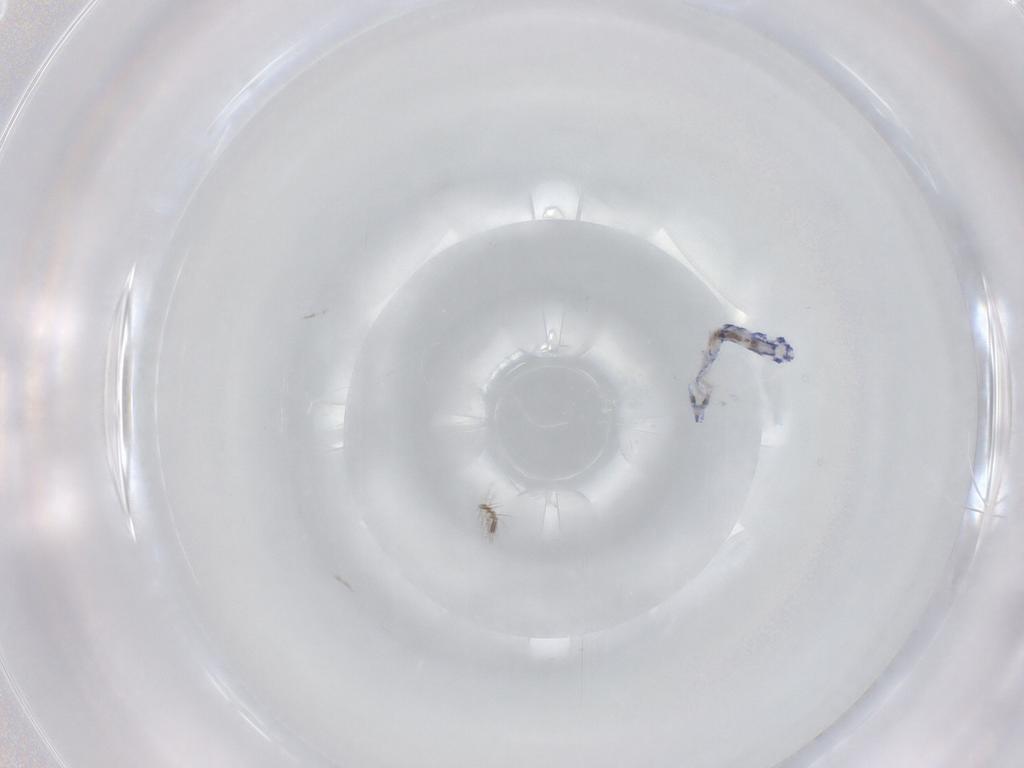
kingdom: Animalia
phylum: Arthropoda
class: Collembola
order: Entomobryomorpha
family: Entomobryidae
